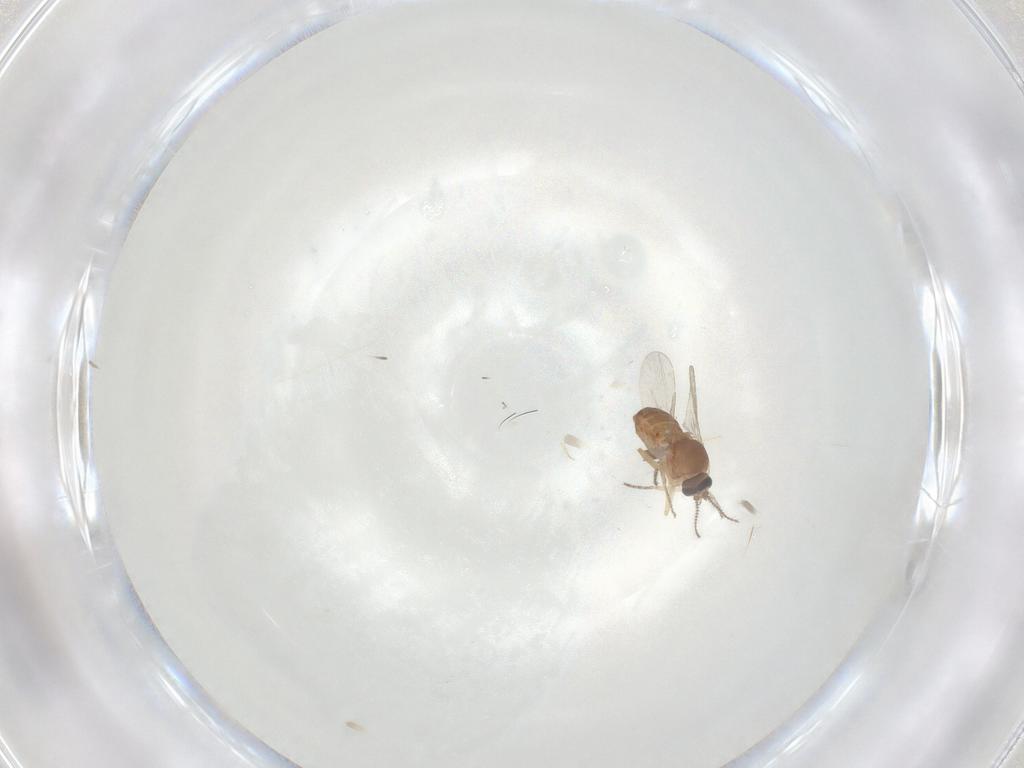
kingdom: Animalia
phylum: Arthropoda
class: Insecta
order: Diptera
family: Ceratopogonidae
